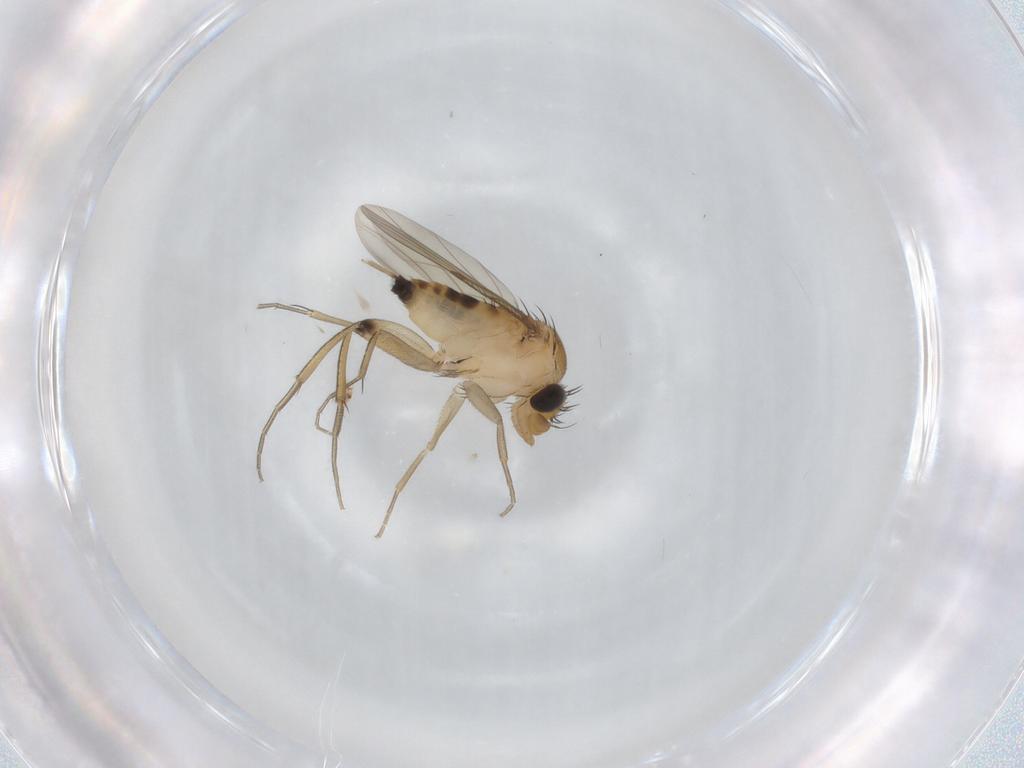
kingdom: Animalia
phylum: Arthropoda
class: Insecta
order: Diptera
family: Phoridae
